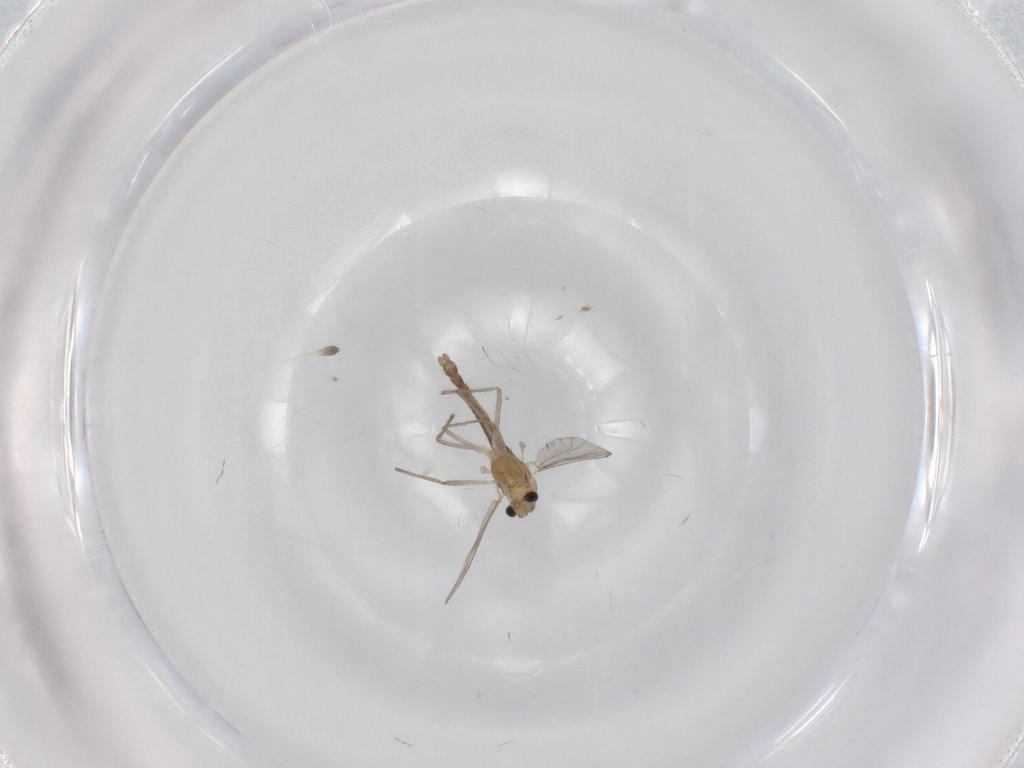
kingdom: Animalia
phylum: Arthropoda
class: Insecta
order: Diptera
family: Chironomidae
